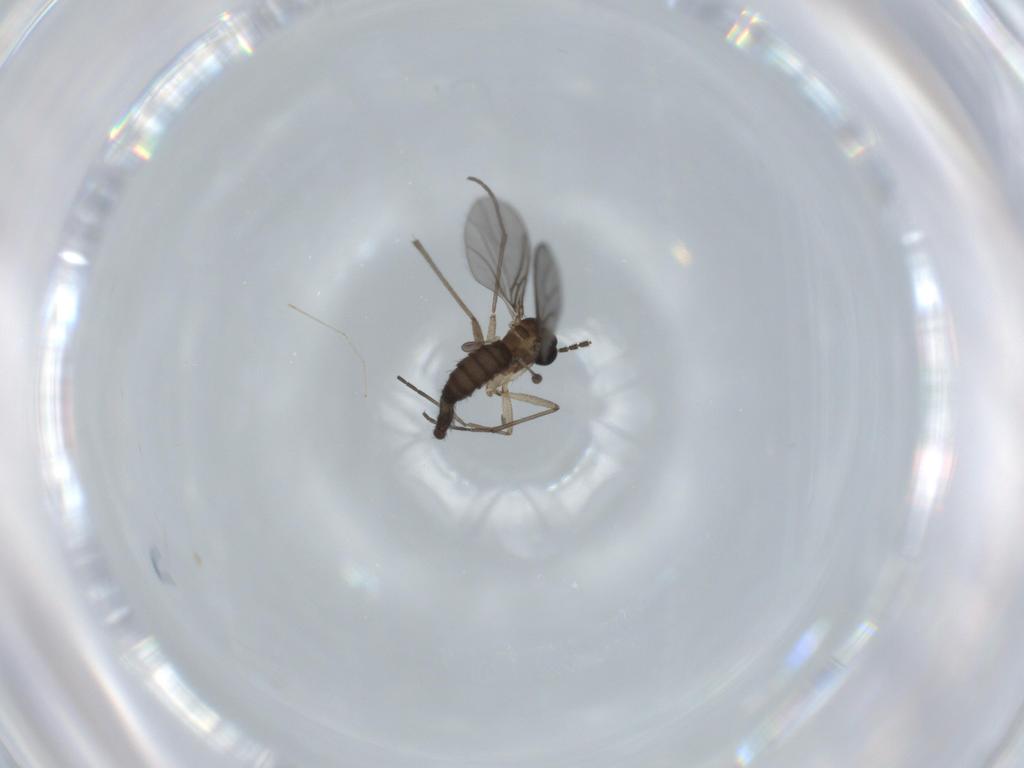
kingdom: Animalia
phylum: Arthropoda
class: Insecta
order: Diptera
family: Sciaridae
